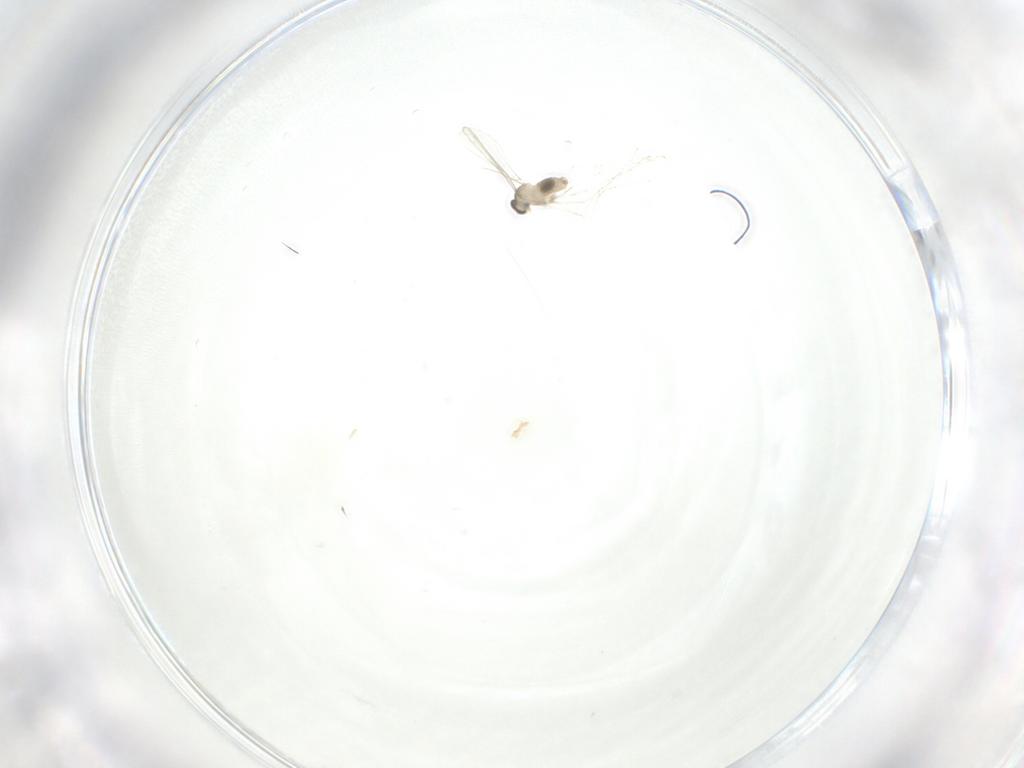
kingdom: Animalia
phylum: Arthropoda
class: Insecta
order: Diptera
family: Cecidomyiidae
